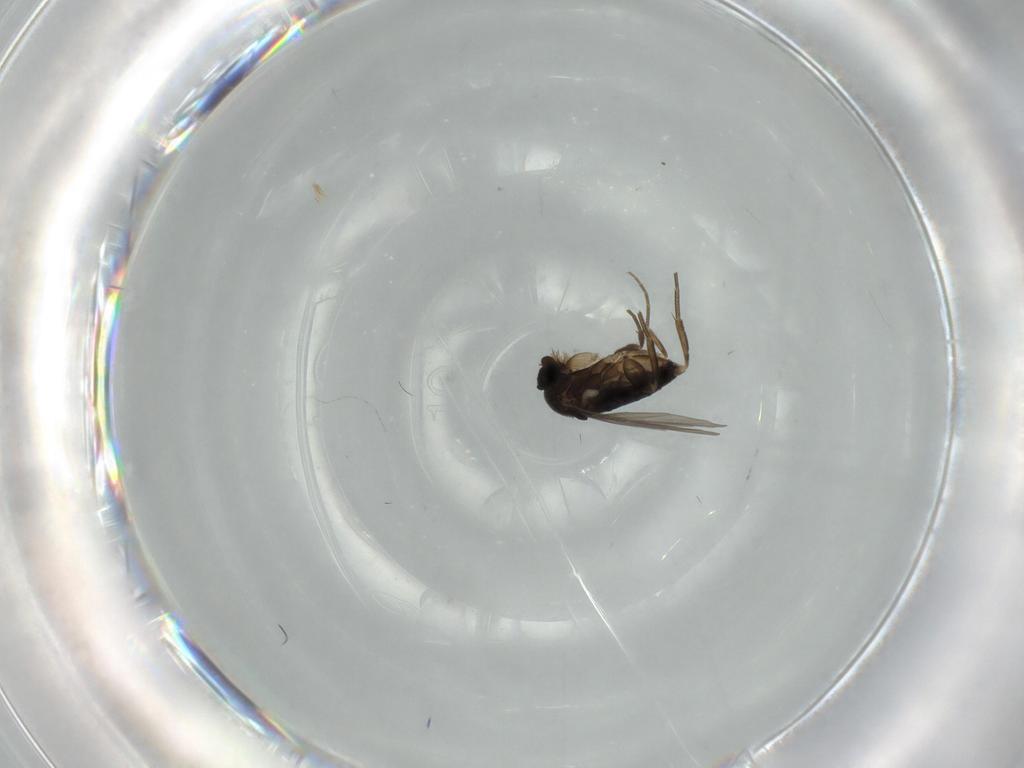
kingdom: Animalia
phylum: Arthropoda
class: Insecta
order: Diptera
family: Phoridae
